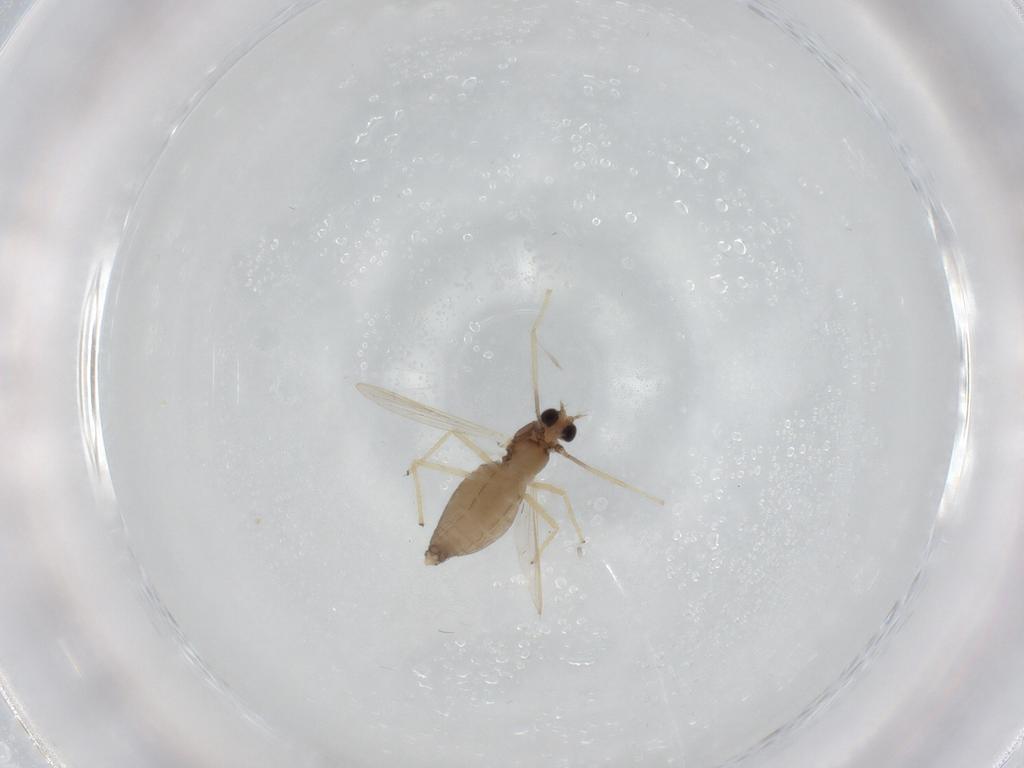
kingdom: Animalia
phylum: Arthropoda
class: Insecta
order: Diptera
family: Chironomidae
